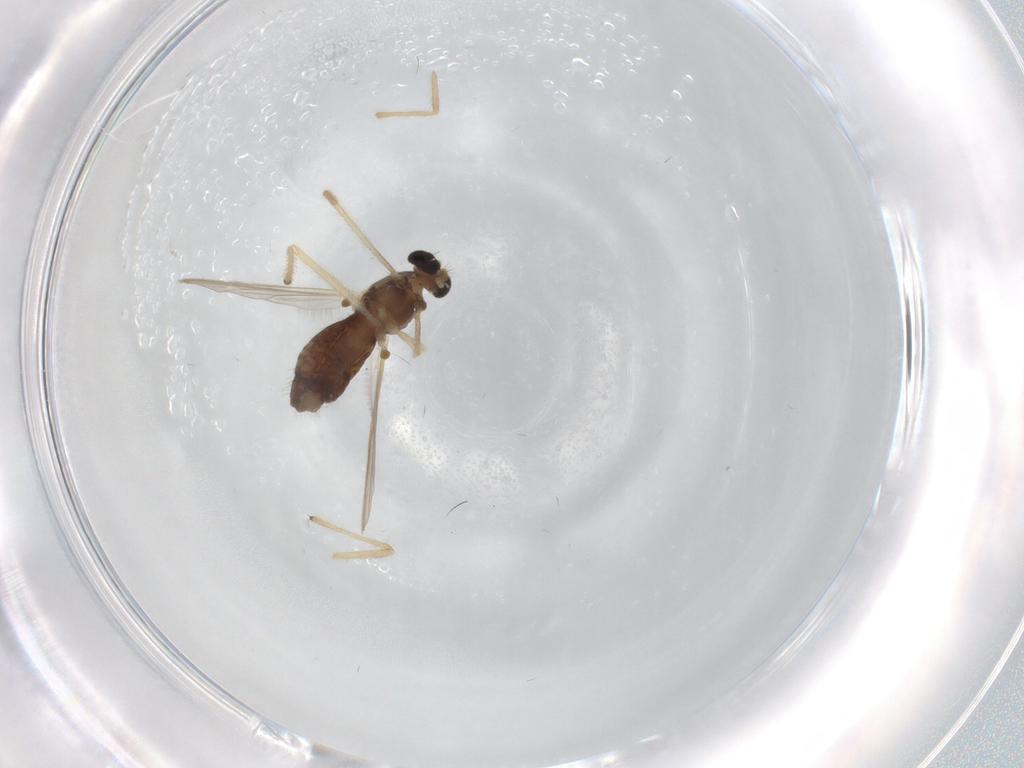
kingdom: Animalia
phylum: Arthropoda
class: Insecta
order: Diptera
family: Chironomidae
